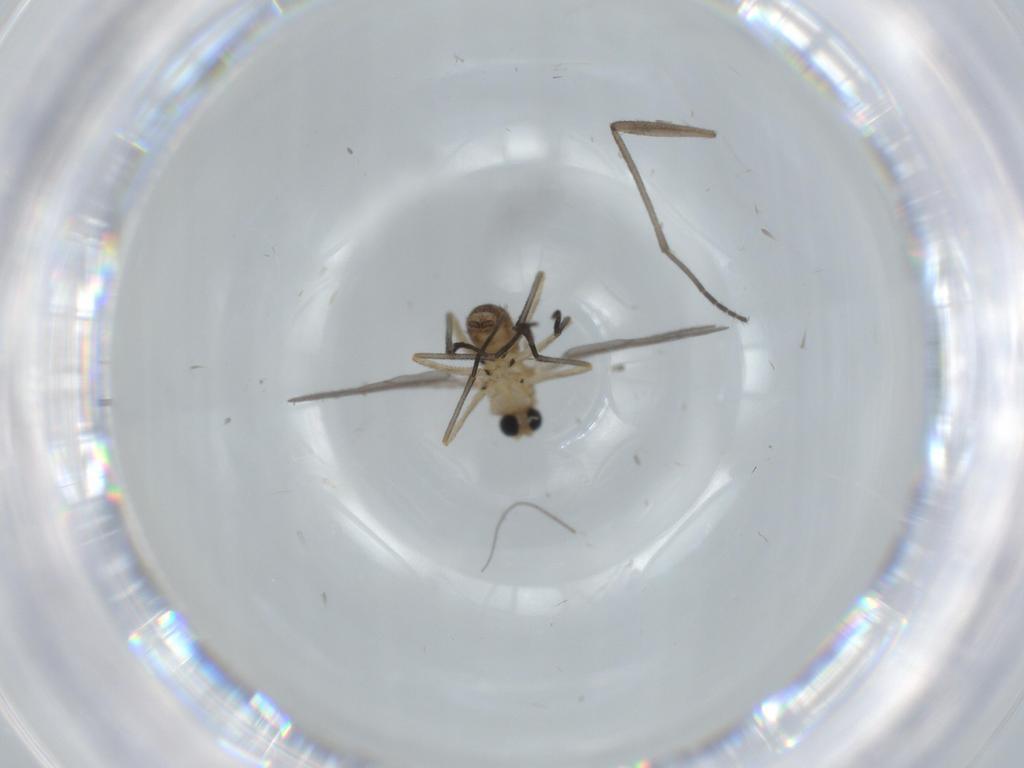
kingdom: Animalia
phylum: Arthropoda
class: Insecta
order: Diptera
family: Sciaridae
